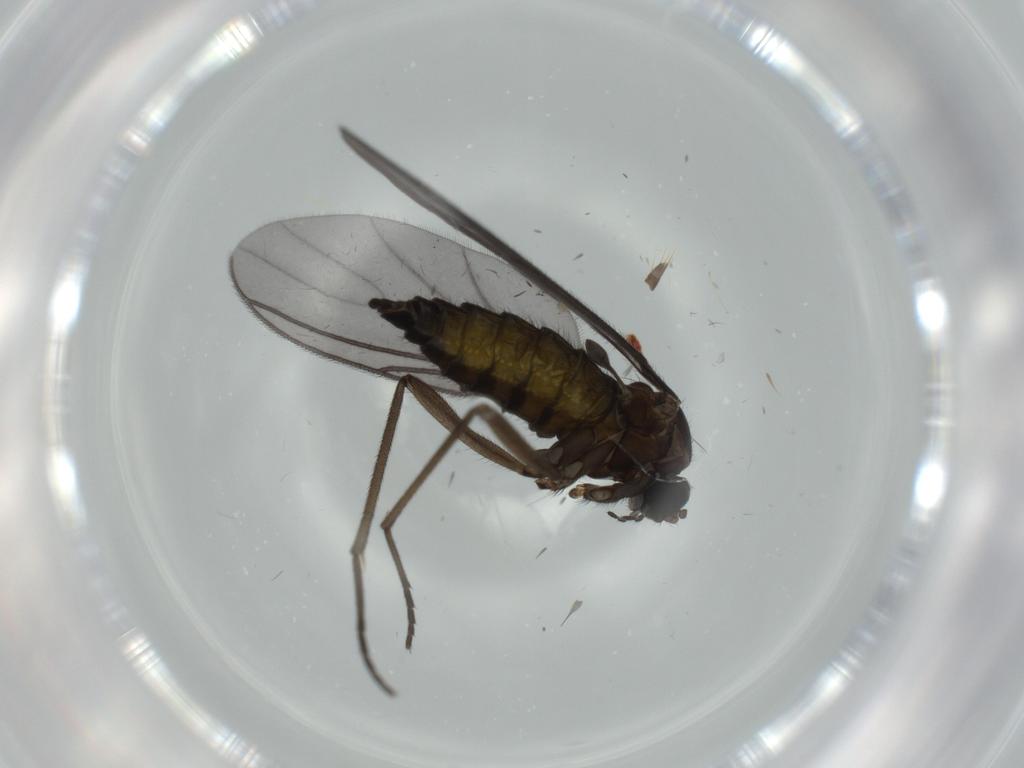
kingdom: Animalia
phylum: Arthropoda
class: Insecta
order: Diptera
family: Sciaridae
